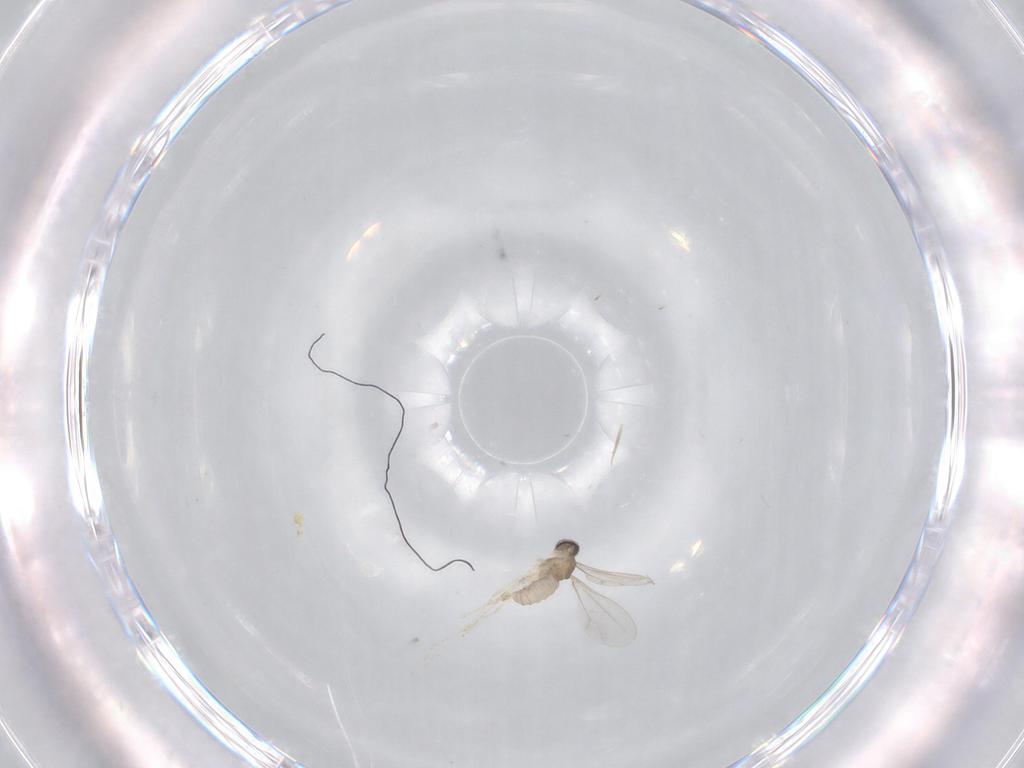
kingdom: Animalia
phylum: Arthropoda
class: Insecta
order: Diptera
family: Cecidomyiidae
